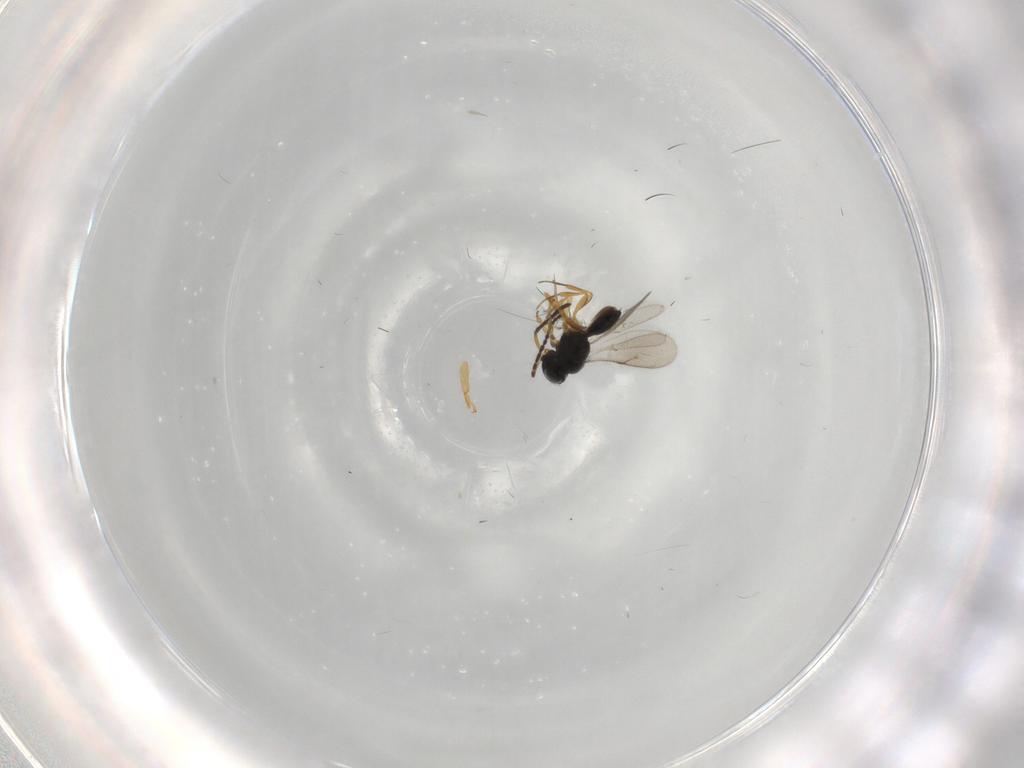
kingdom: Animalia
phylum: Arthropoda
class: Insecta
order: Hymenoptera
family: Scelionidae
